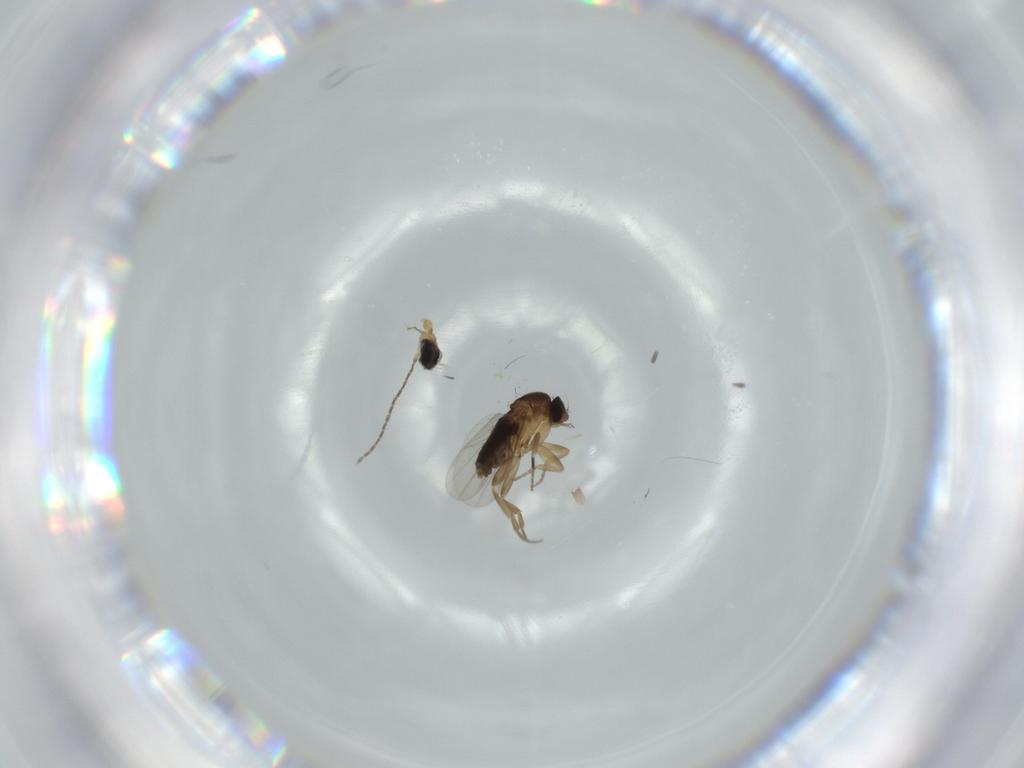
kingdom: Animalia
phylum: Arthropoda
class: Insecta
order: Diptera
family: Cecidomyiidae
